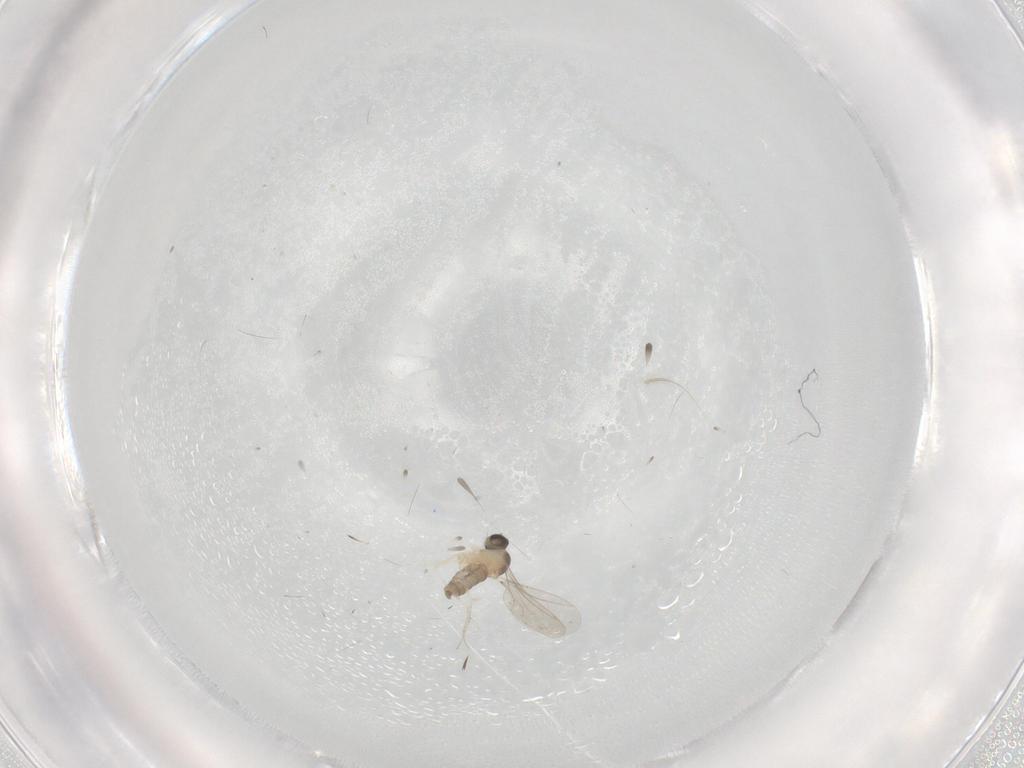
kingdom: Animalia
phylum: Arthropoda
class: Insecta
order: Diptera
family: Cecidomyiidae
